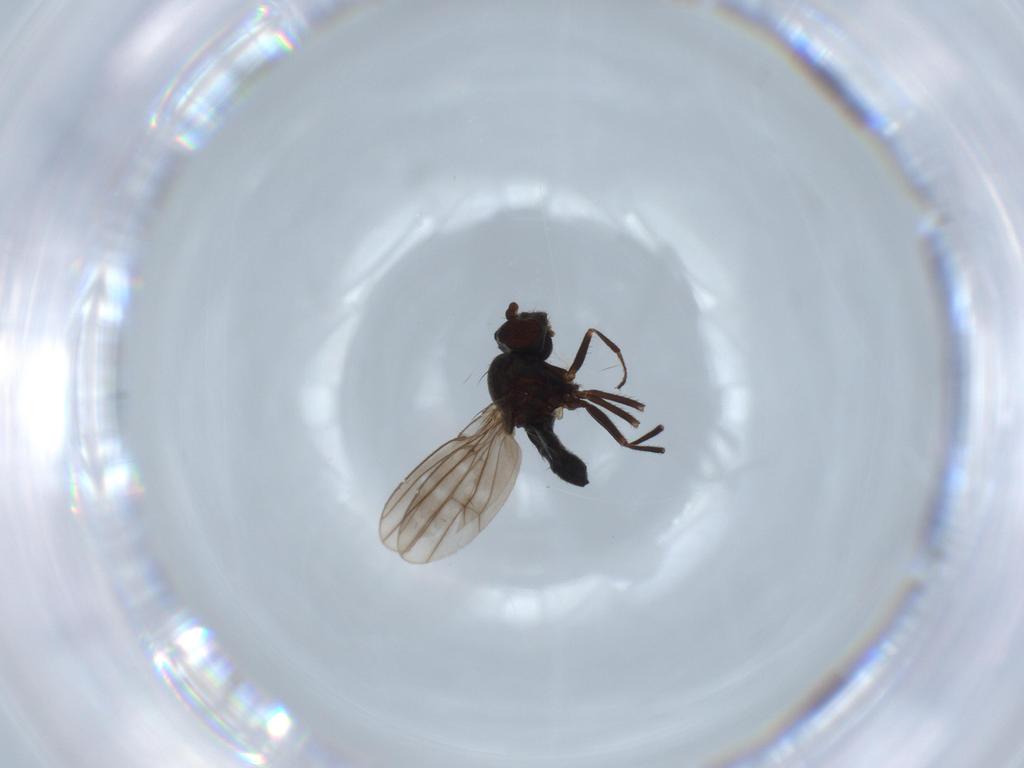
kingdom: Animalia
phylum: Arthropoda
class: Insecta
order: Diptera
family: Ephydridae
